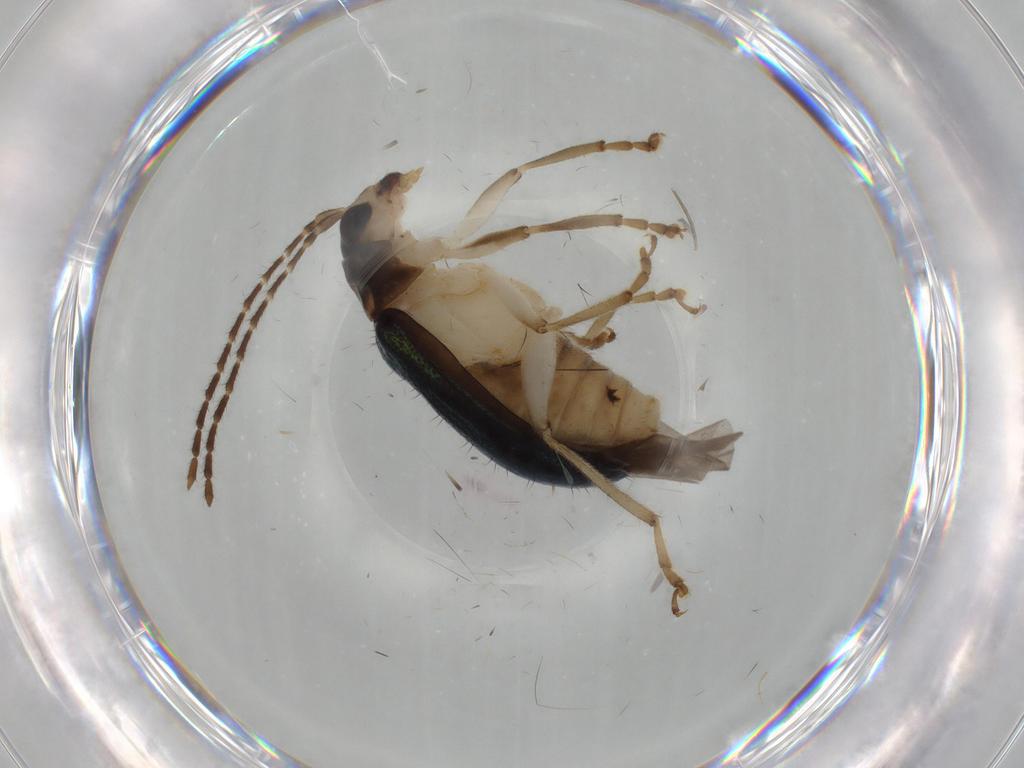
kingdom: Animalia
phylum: Arthropoda
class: Insecta
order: Coleoptera
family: Chrysomelidae
